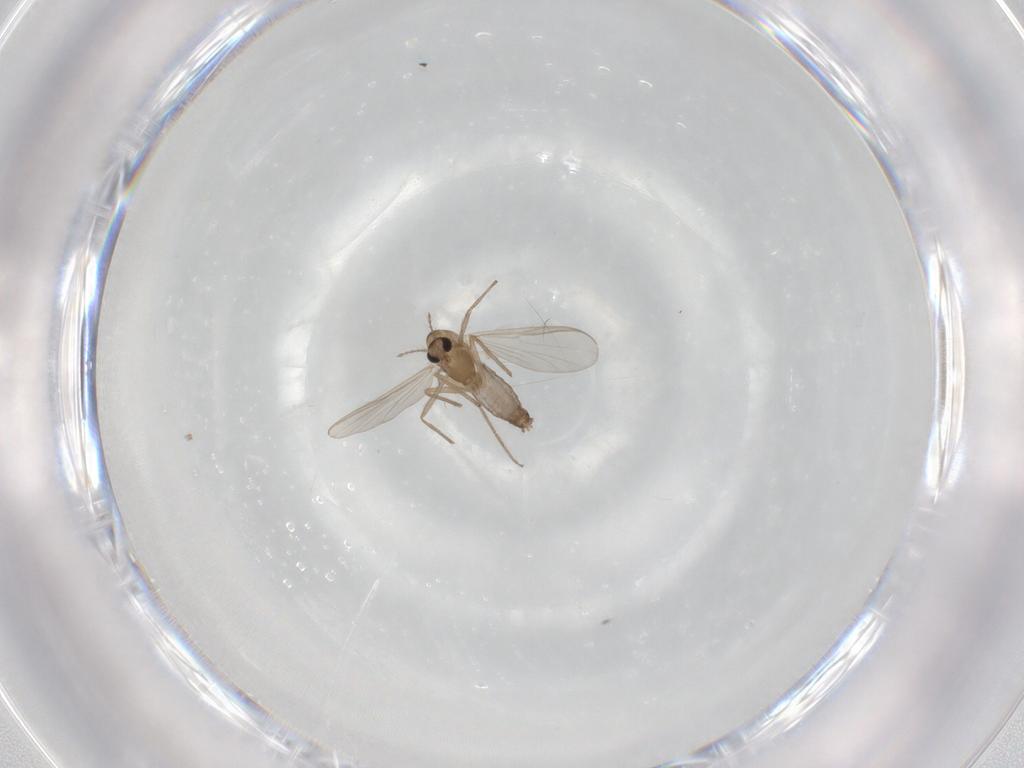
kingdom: Animalia
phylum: Arthropoda
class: Insecta
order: Diptera
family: Chironomidae
